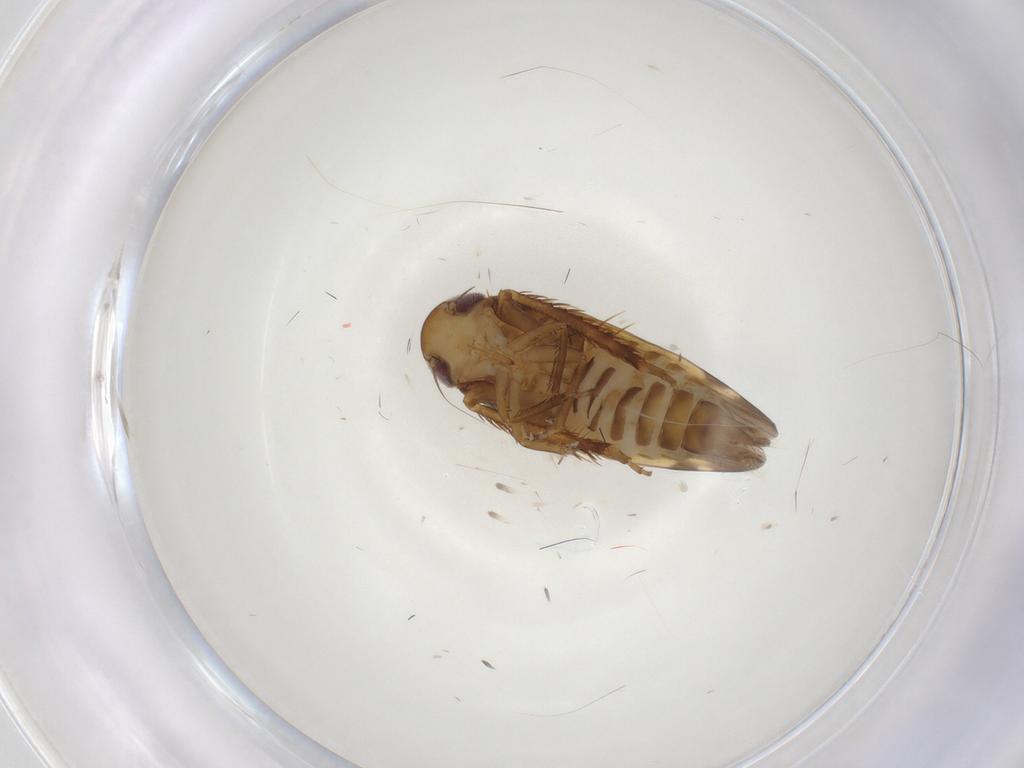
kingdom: Animalia
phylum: Arthropoda
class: Insecta
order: Hemiptera
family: Cicadellidae
